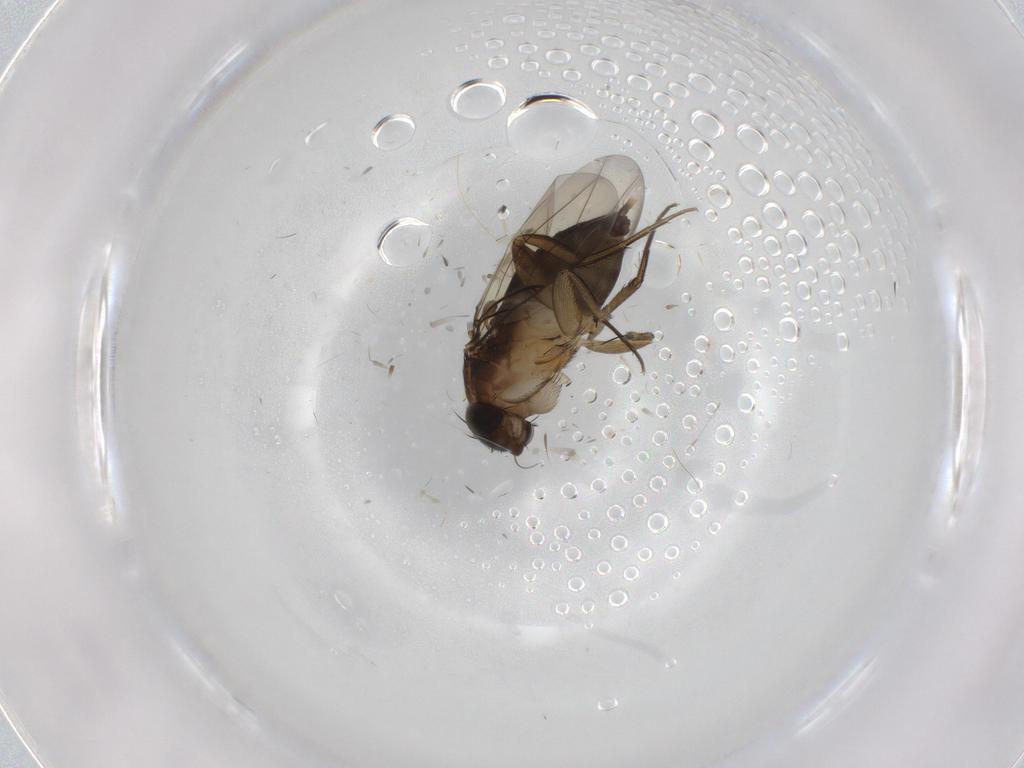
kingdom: Animalia
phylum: Arthropoda
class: Insecta
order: Diptera
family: Phoridae
